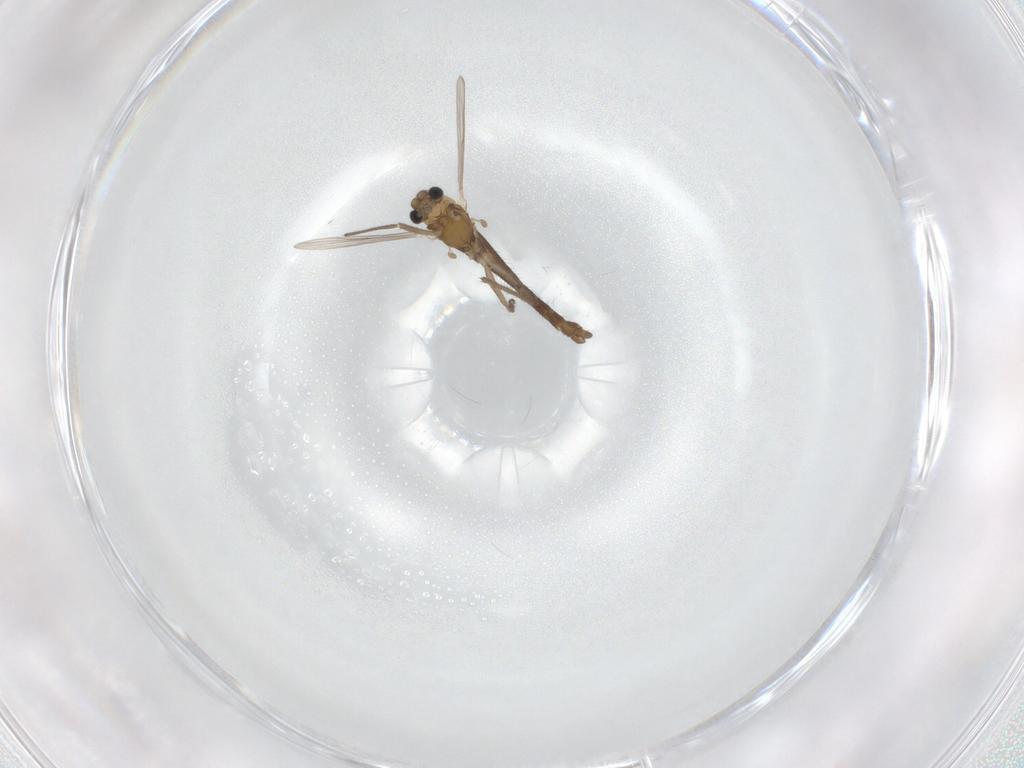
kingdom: Animalia
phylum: Arthropoda
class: Insecta
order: Diptera
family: Chironomidae
